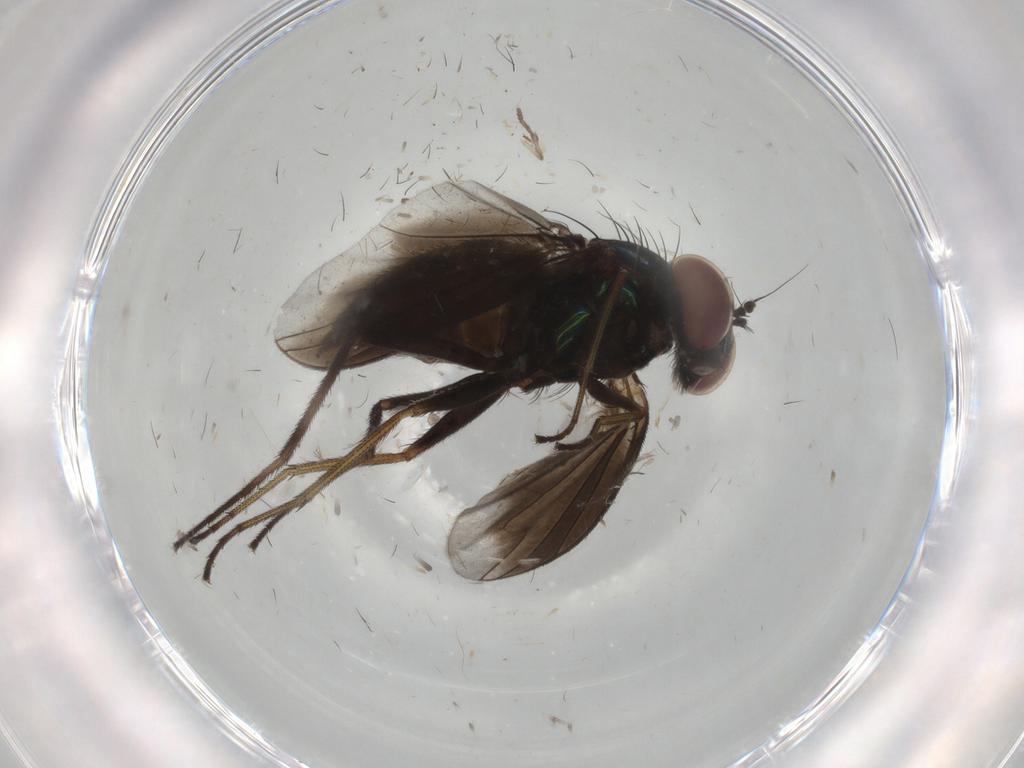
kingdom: Animalia
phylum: Arthropoda
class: Insecta
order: Diptera
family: Dolichopodidae
